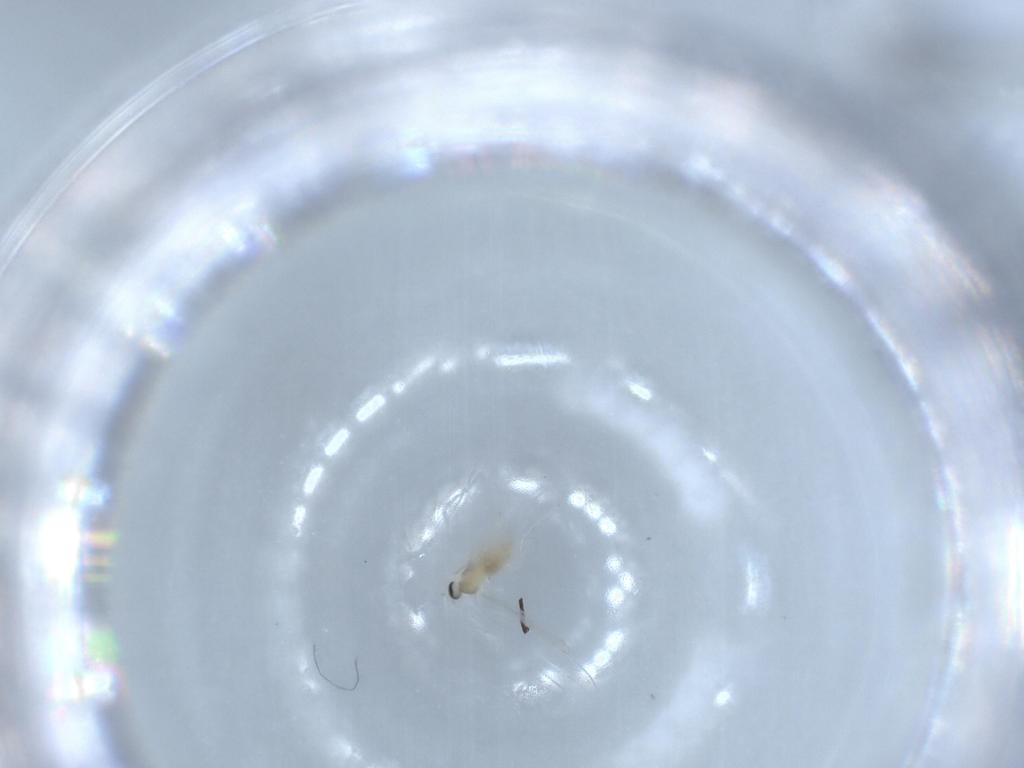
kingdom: Animalia
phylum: Arthropoda
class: Insecta
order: Diptera
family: Cecidomyiidae
